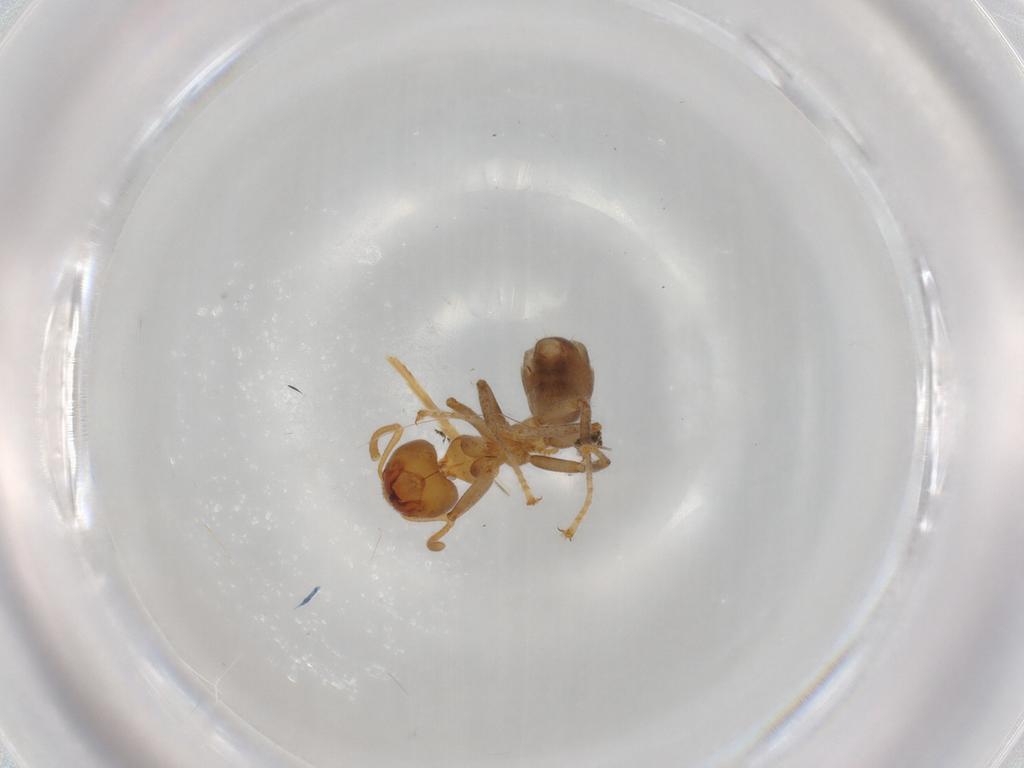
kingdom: Animalia
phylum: Arthropoda
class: Insecta
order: Hymenoptera
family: Formicidae
